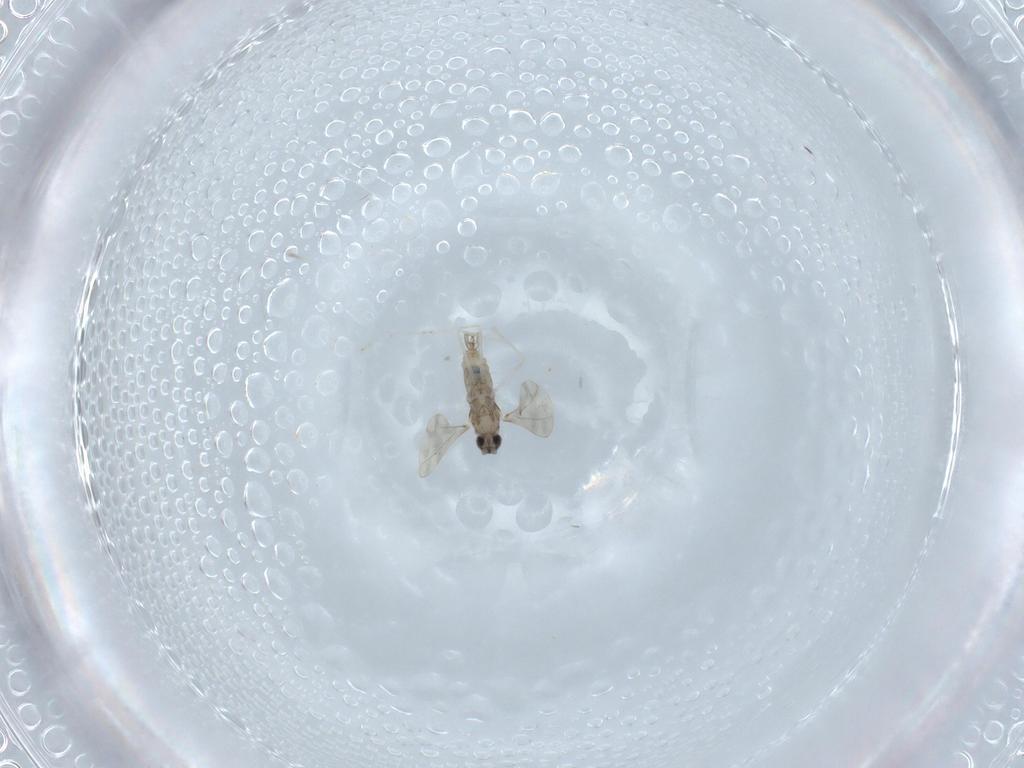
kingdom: Animalia
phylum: Arthropoda
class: Insecta
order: Diptera
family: Cecidomyiidae
